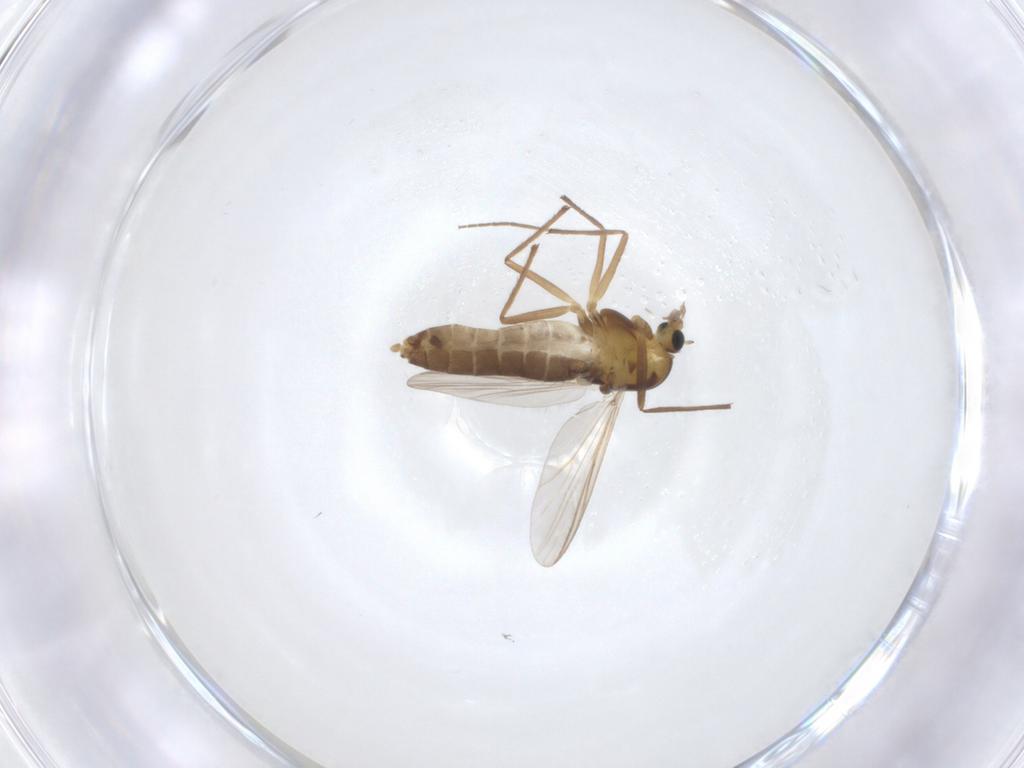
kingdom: Animalia
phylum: Arthropoda
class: Insecta
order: Diptera
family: Chironomidae
